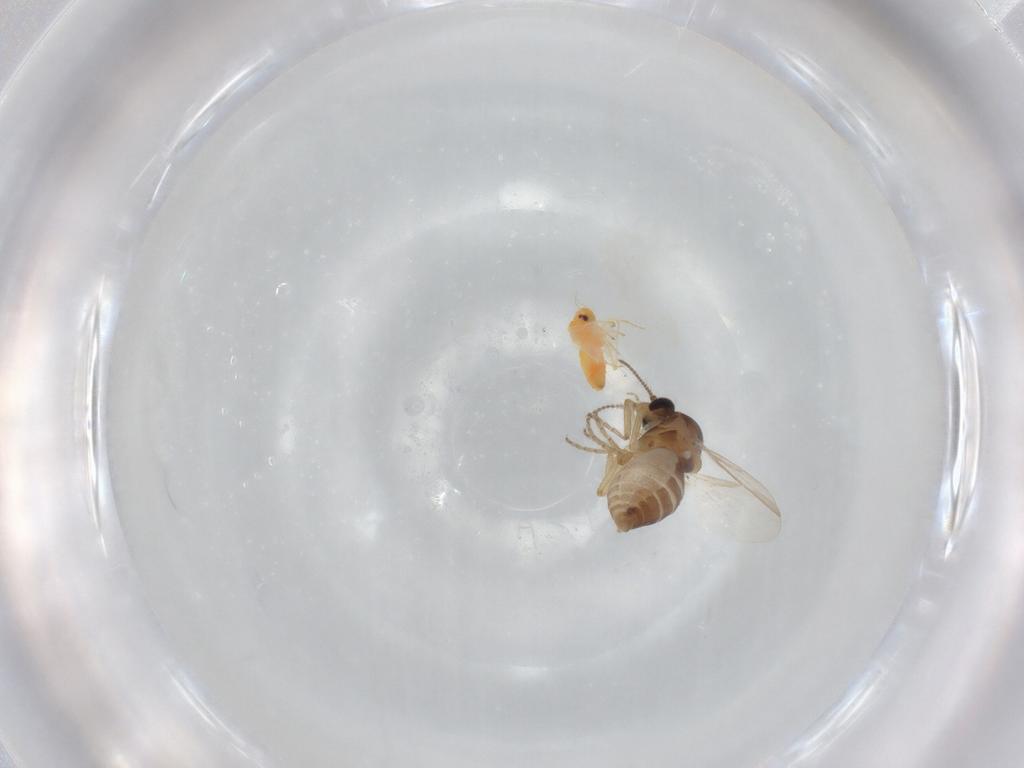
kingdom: Animalia
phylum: Arthropoda
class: Insecta
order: Diptera
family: Ceratopogonidae
